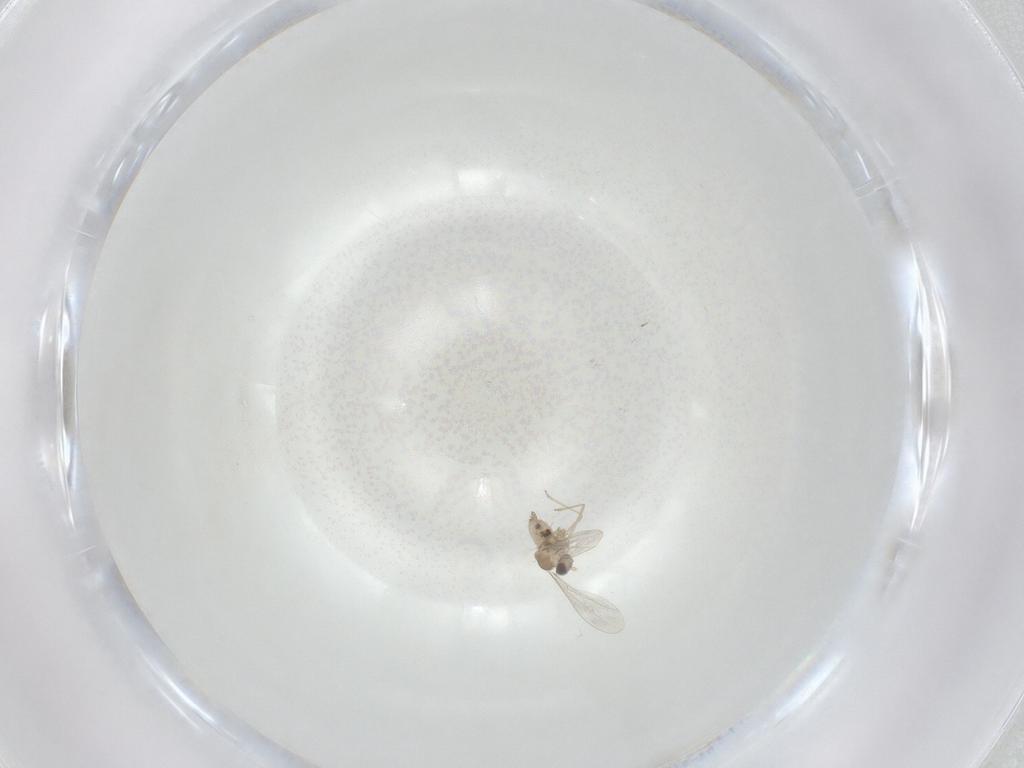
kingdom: Animalia
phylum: Arthropoda
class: Insecta
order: Diptera
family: Cecidomyiidae
